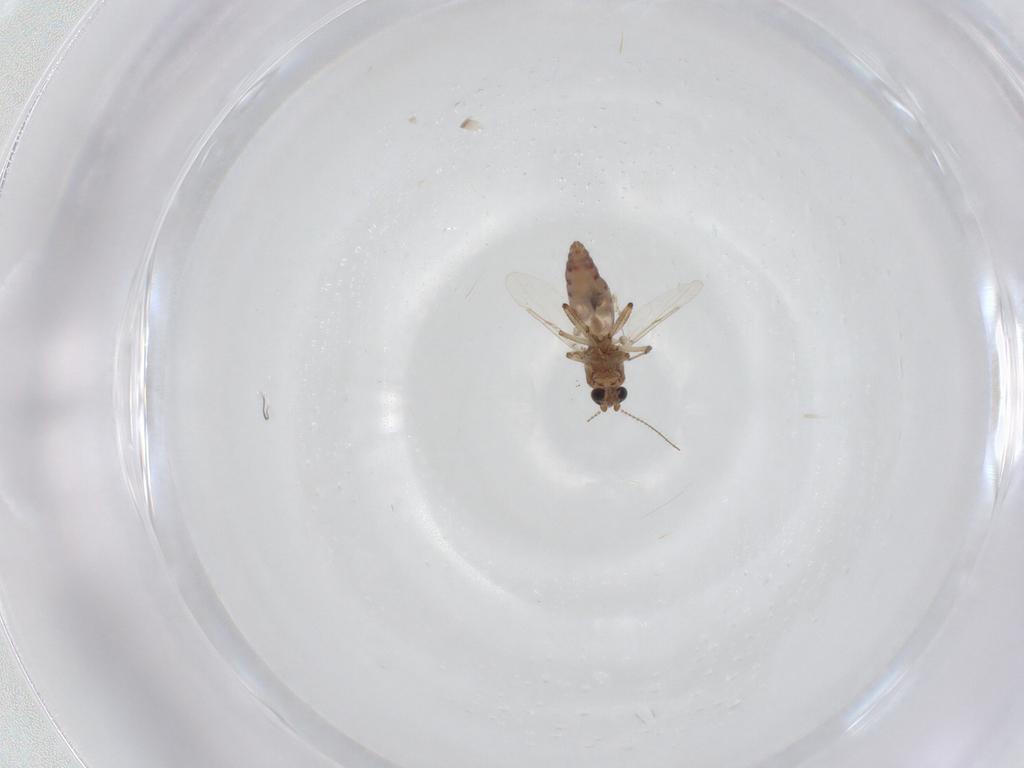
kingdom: Animalia
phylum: Arthropoda
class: Insecta
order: Diptera
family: Ceratopogonidae
